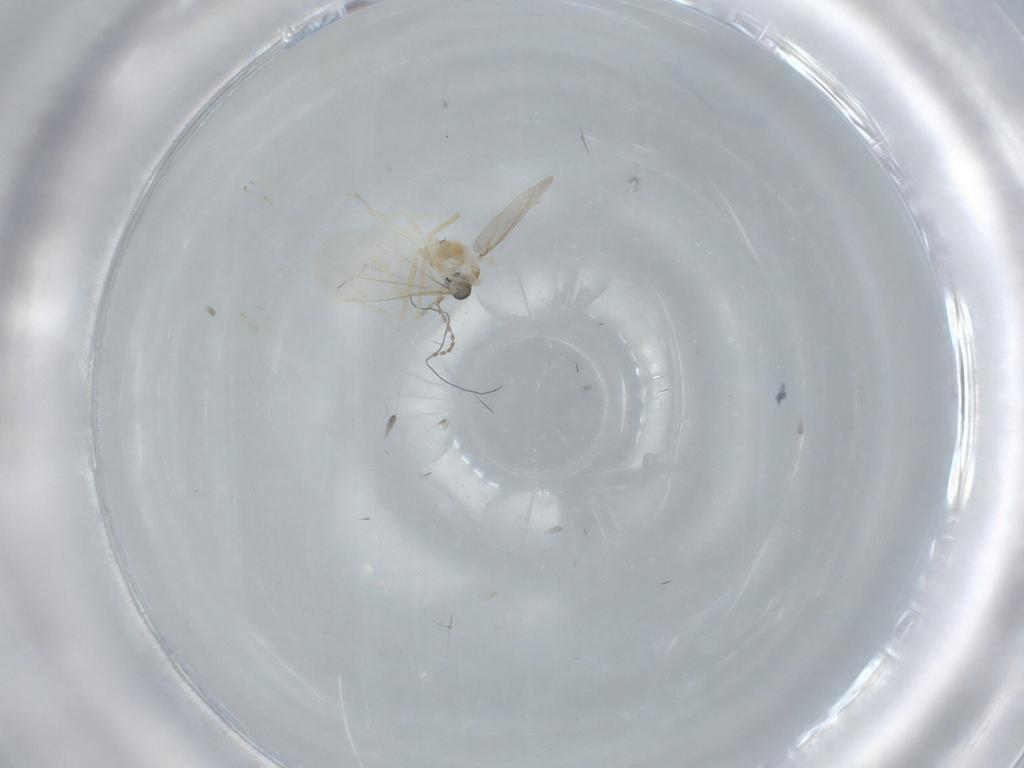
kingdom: Animalia
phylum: Arthropoda
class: Insecta
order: Diptera
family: Cecidomyiidae
